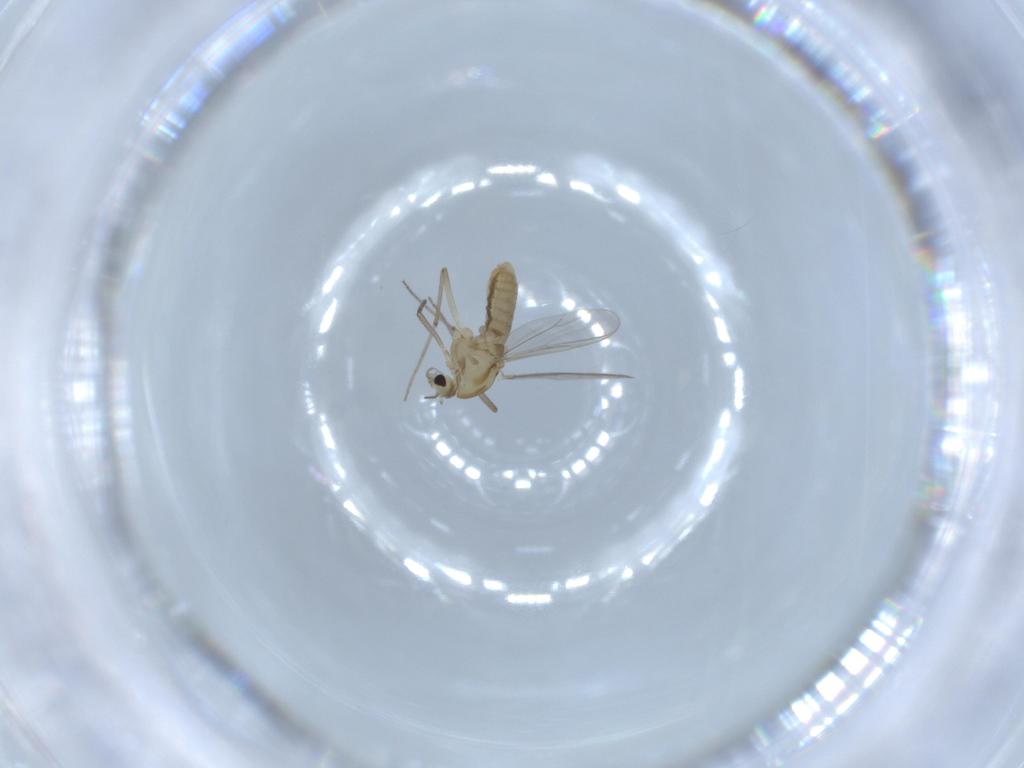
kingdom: Animalia
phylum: Arthropoda
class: Insecta
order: Diptera
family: Chironomidae
